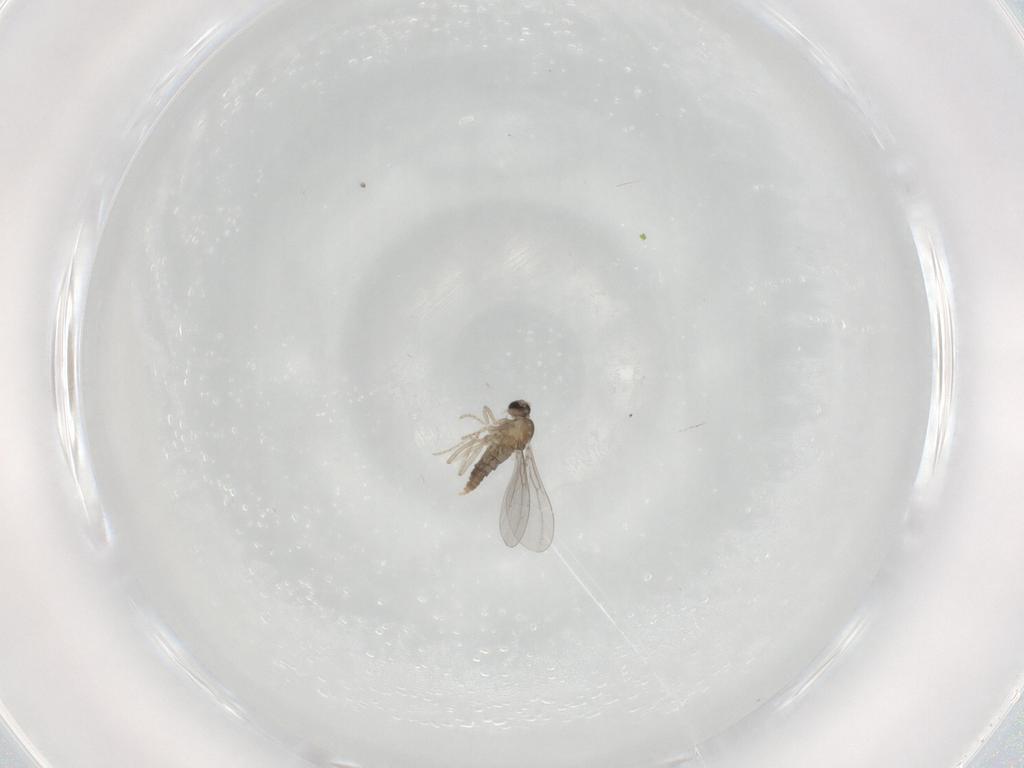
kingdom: Animalia
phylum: Arthropoda
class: Insecta
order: Diptera
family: Cecidomyiidae
